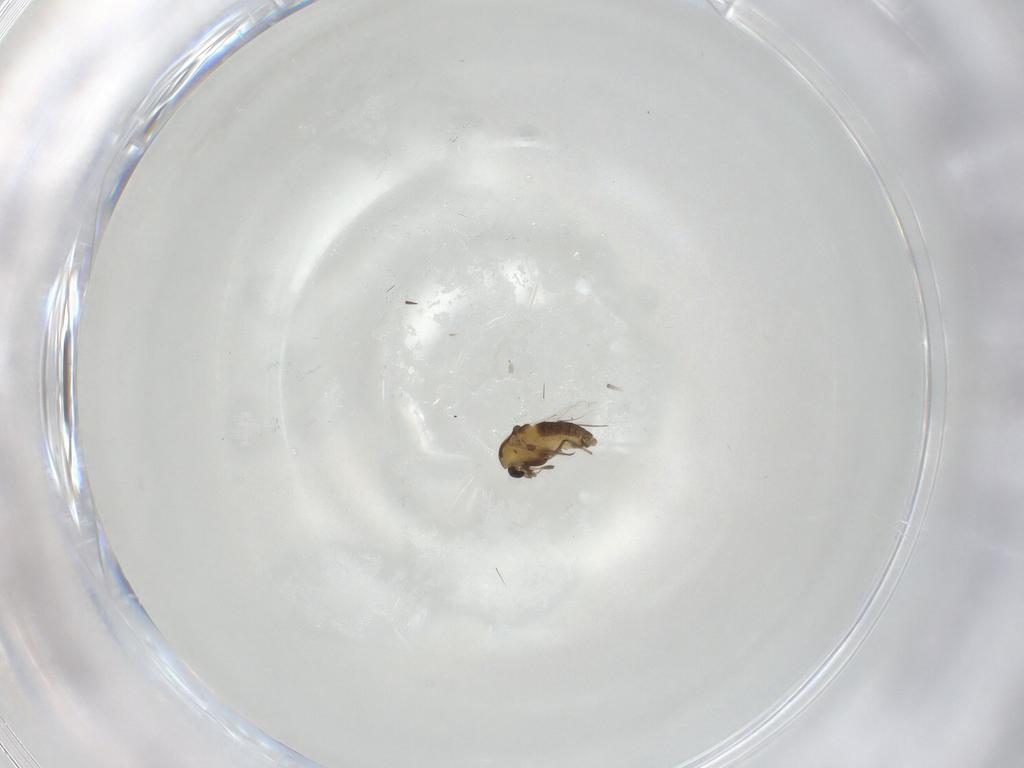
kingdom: Animalia
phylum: Arthropoda
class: Insecta
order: Diptera
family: Chironomidae
